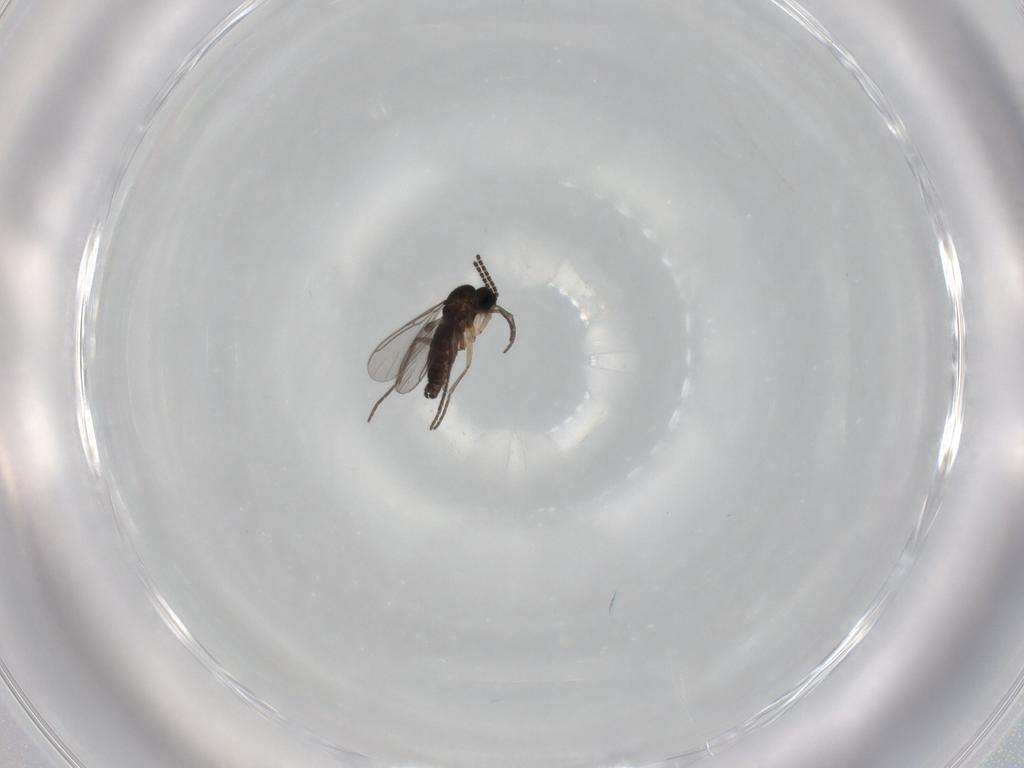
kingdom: Animalia
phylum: Arthropoda
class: Insecta
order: Diptera
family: Sciaridae
